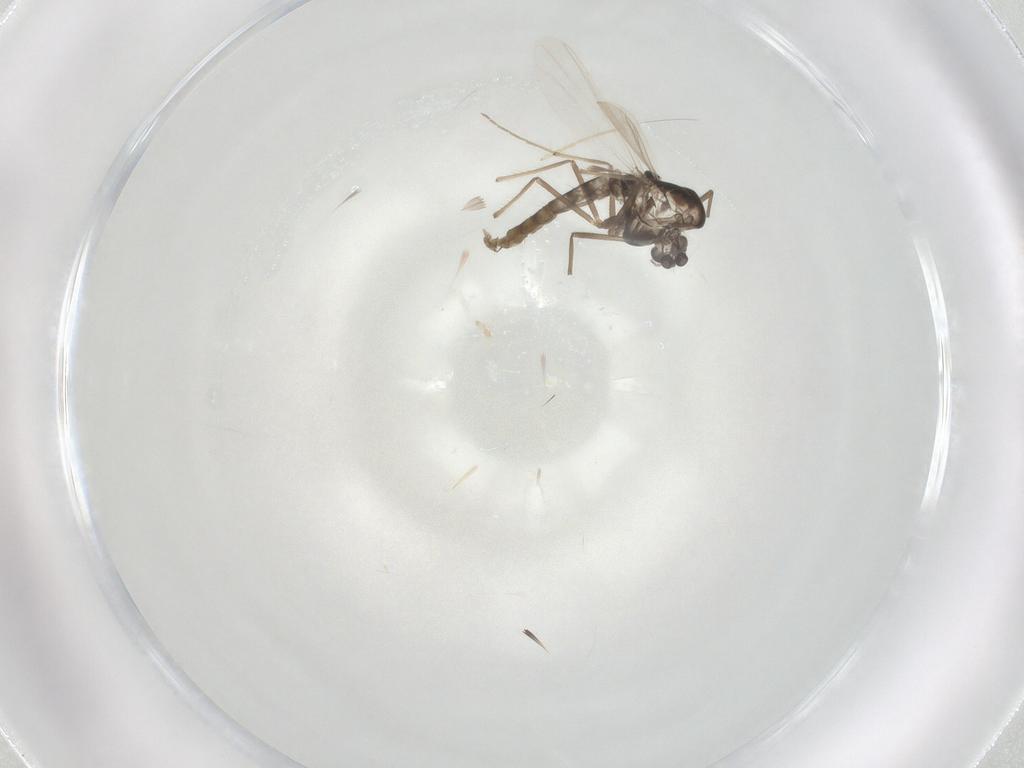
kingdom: Animalia
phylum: Arthropoda
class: Insecta
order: Diptera
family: Chironomidae
